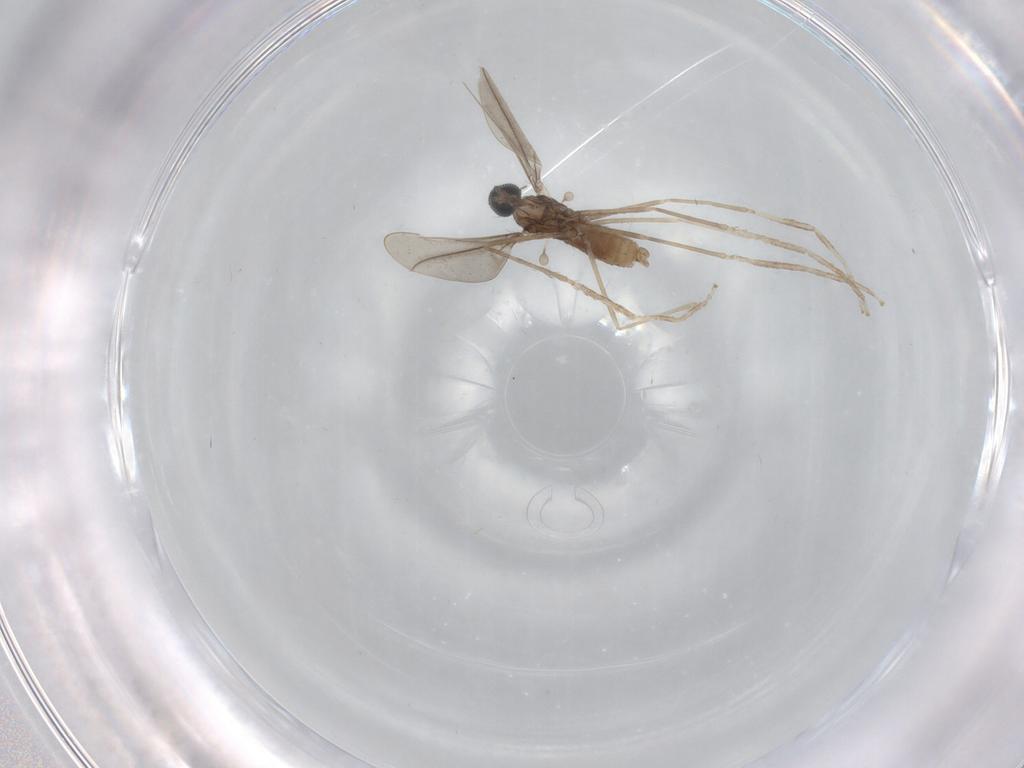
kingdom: Animalia
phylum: Arthropoda
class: Insecta
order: Diptera
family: Cecidomyiidae
